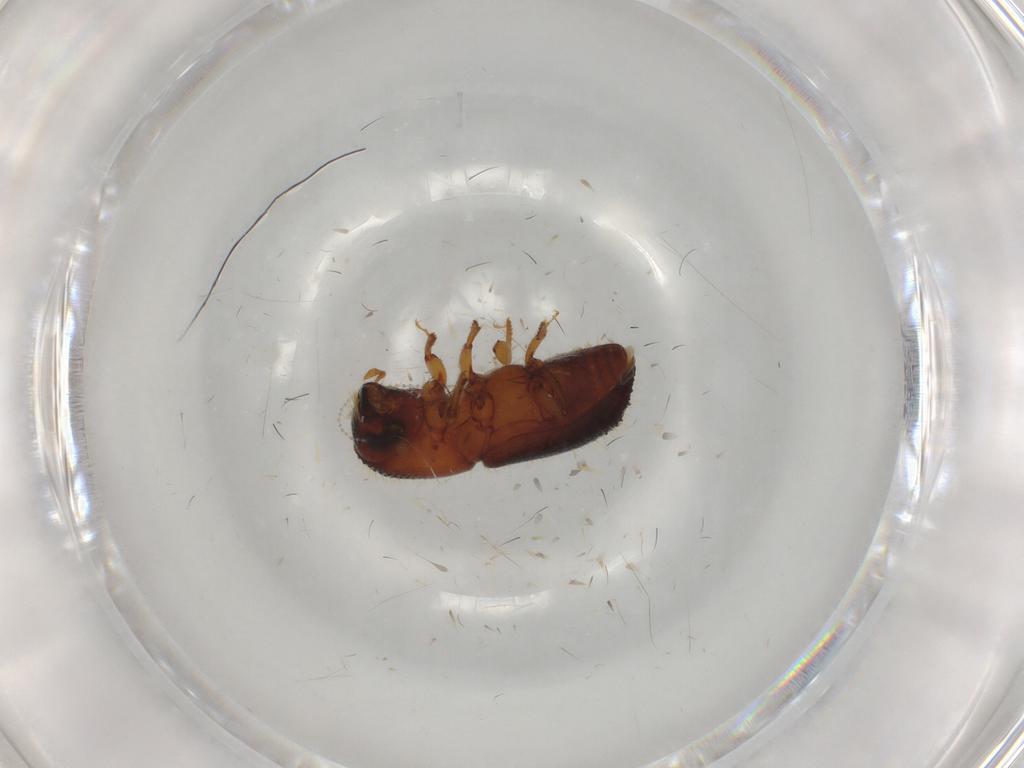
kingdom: Animalia
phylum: Arthropoda
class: Insecta
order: Coleoptera
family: Curculionidae
